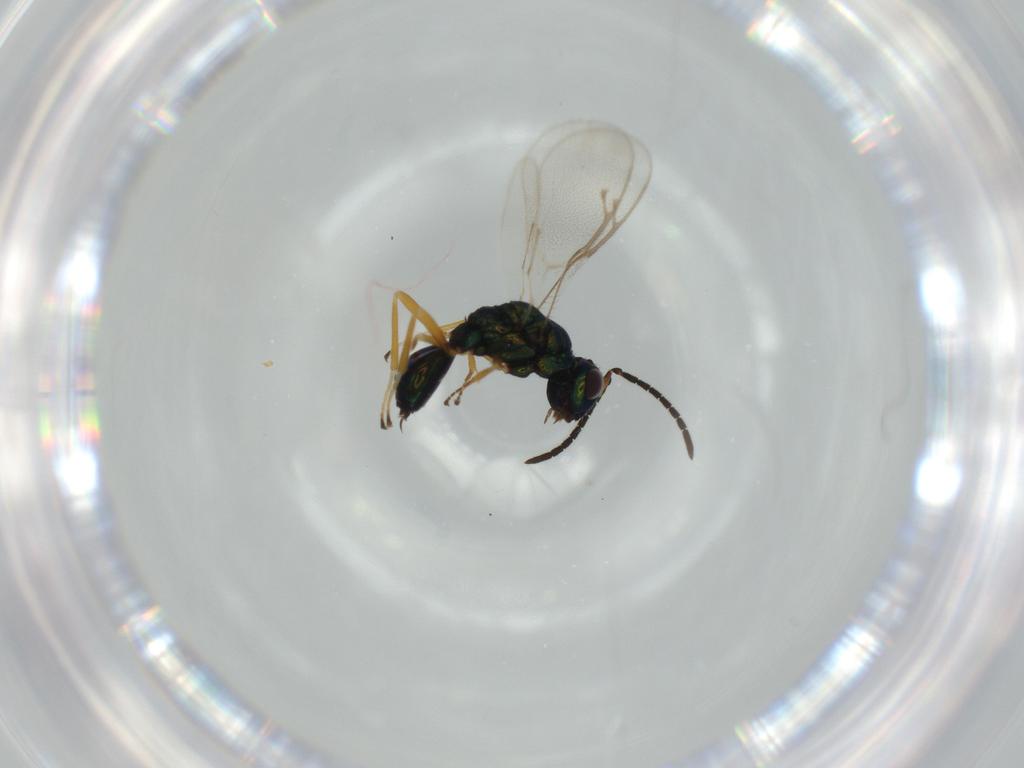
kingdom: Animalia
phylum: Arthropoda
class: Insecta
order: Hymenoptera
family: Pteromalidae
